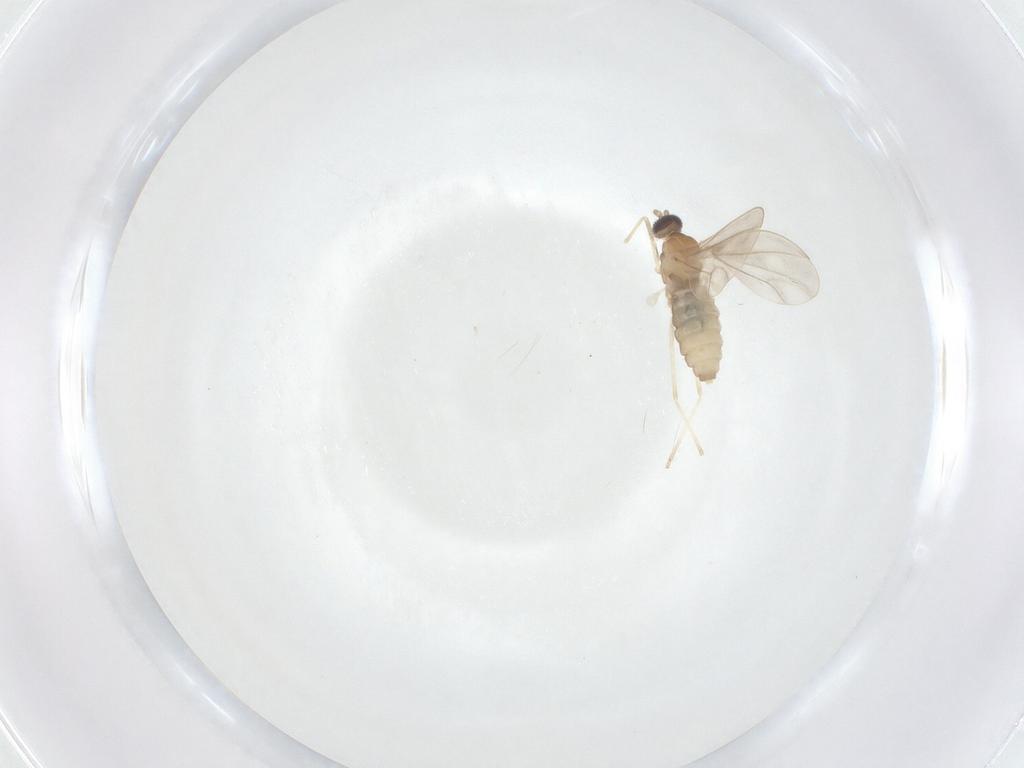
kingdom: Animalia
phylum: Arthropoda
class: Insecta
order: Diptera
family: Cecidomyiidae
